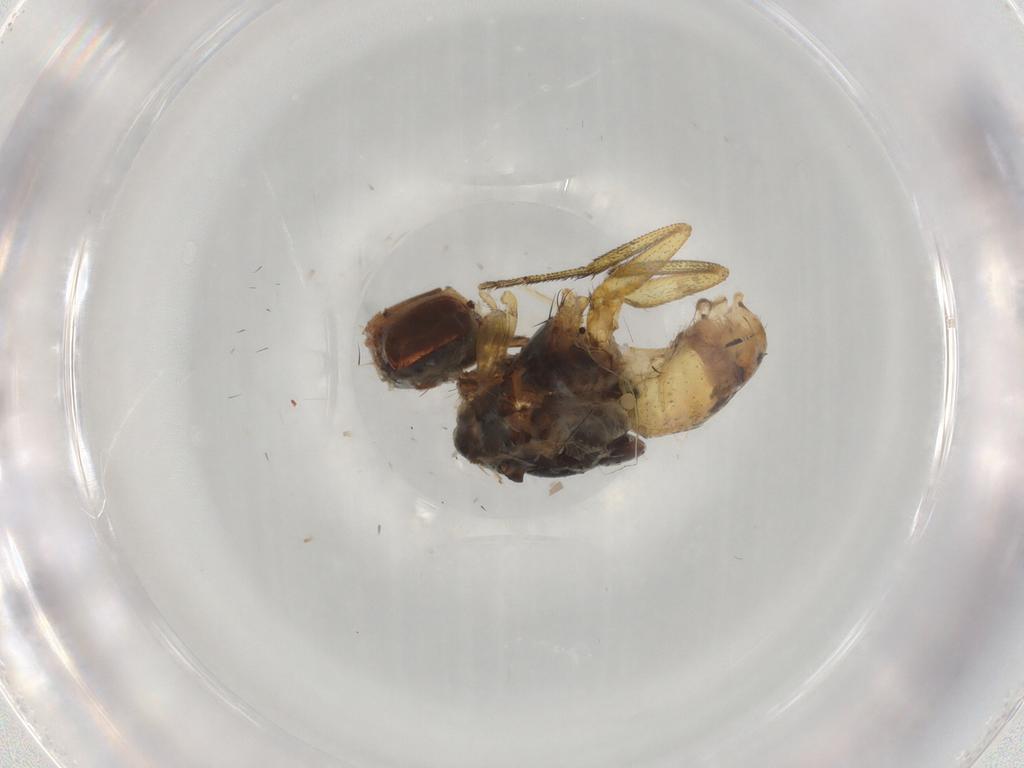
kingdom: Animalia
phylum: Arthropoda
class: Insecta
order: Diptera
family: Muscidae
